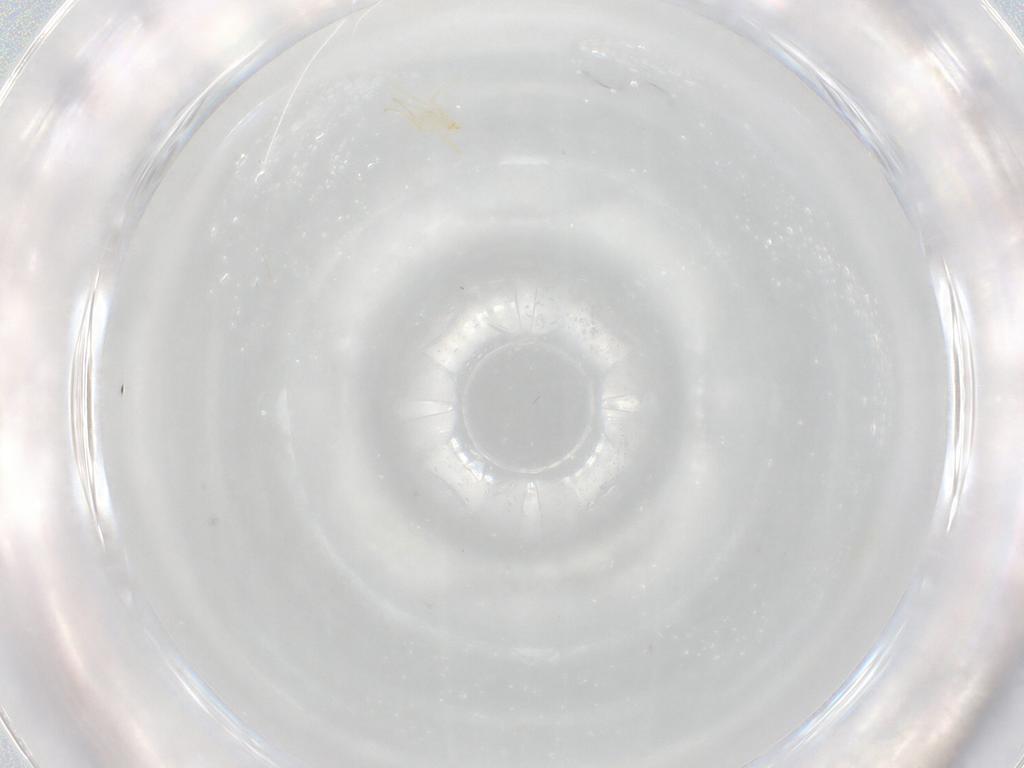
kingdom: Animalia
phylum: Arthropoda
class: Arachnida
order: Trombidiformes
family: Erythraeidae
